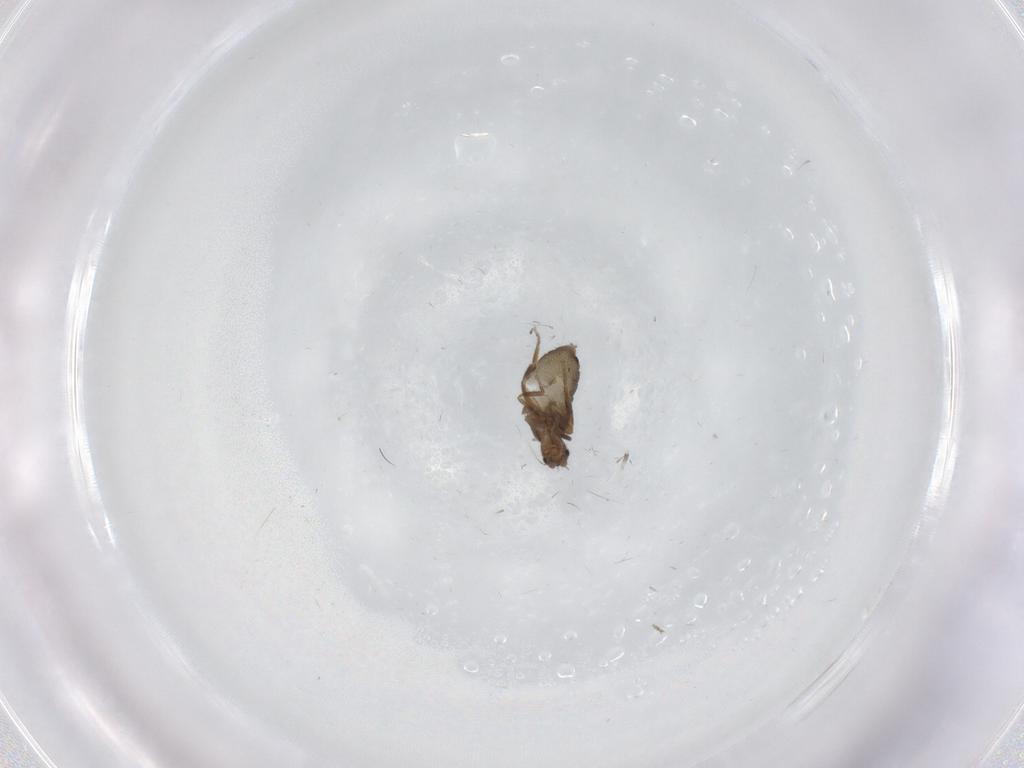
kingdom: Animalia
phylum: Arthropoda
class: Insecta
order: Diptera
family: Phoridae
